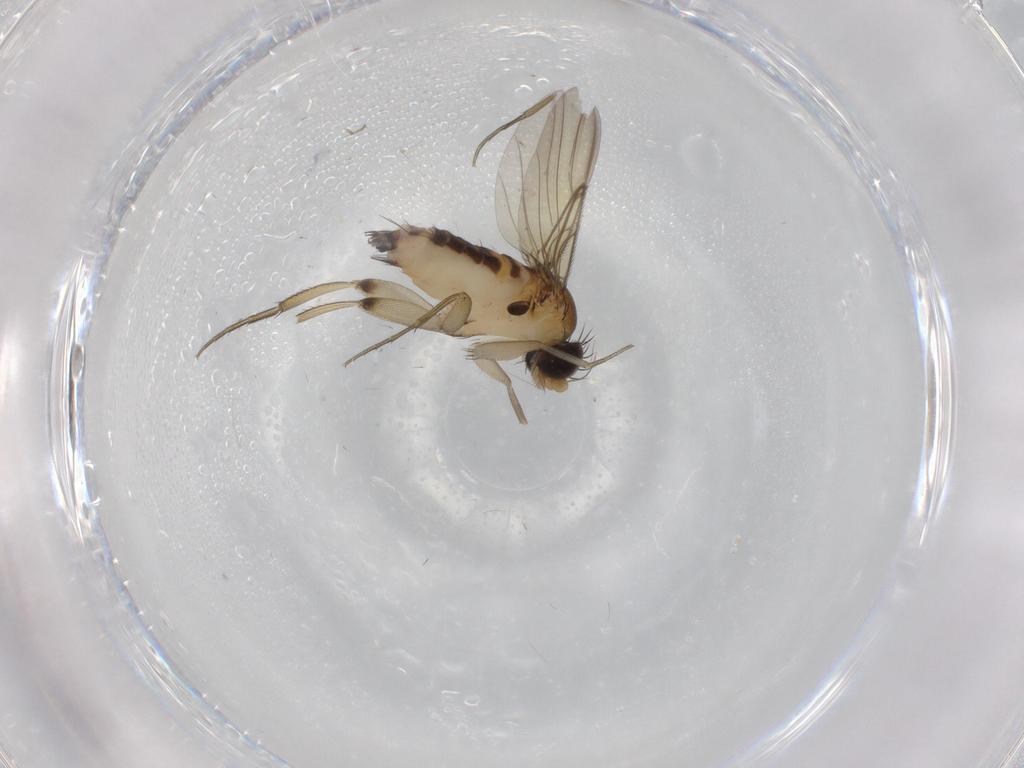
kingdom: Animalia
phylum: Arthropoda
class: Insecta
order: Diptera
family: Phoridae
